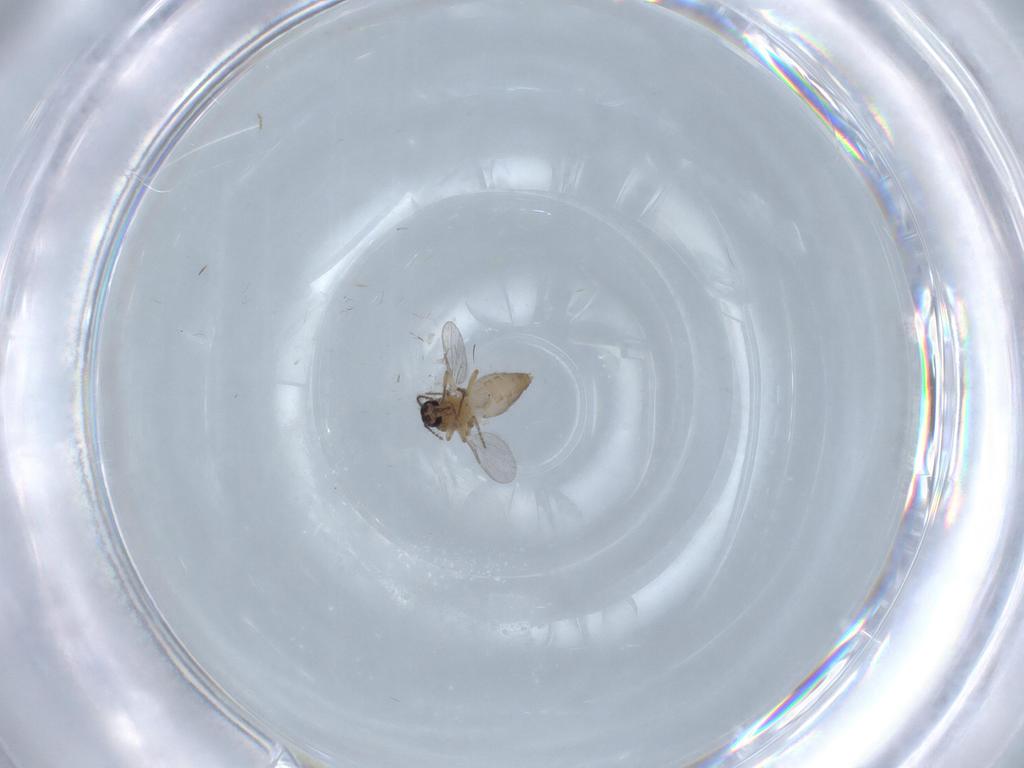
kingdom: Animalia
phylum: Arthropoda
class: Insecta
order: Diptera
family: Ceratopogonidae
